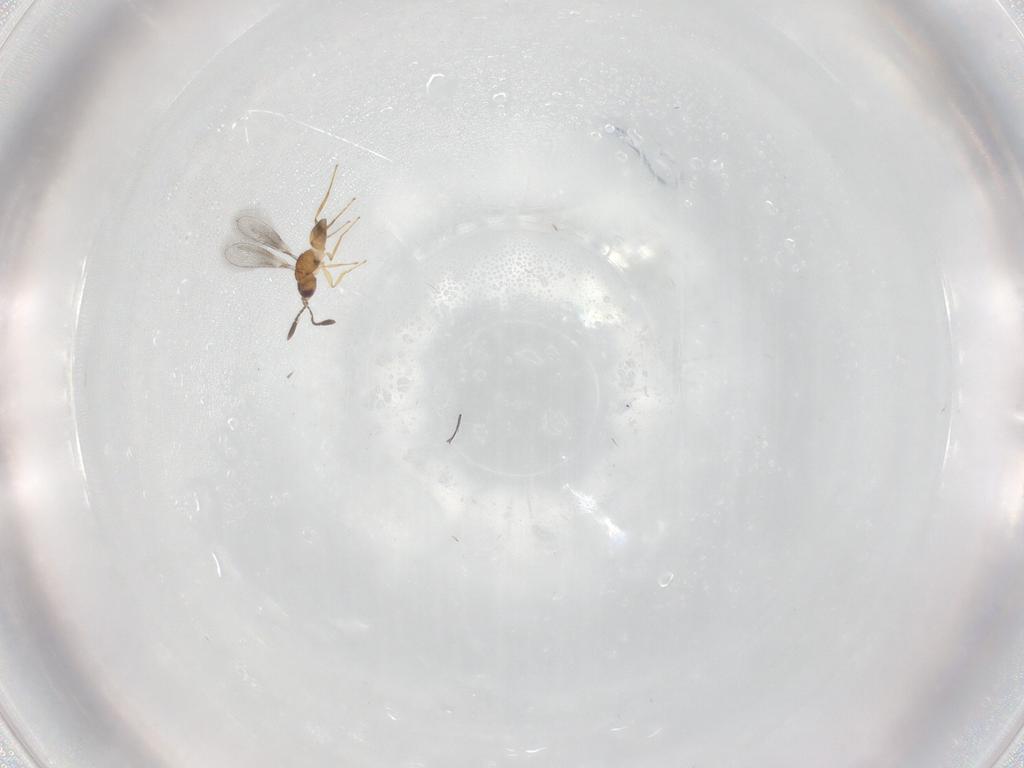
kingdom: Animalia
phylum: Arthropoda
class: Insecta
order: Hymenoptera
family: Mymaridae
